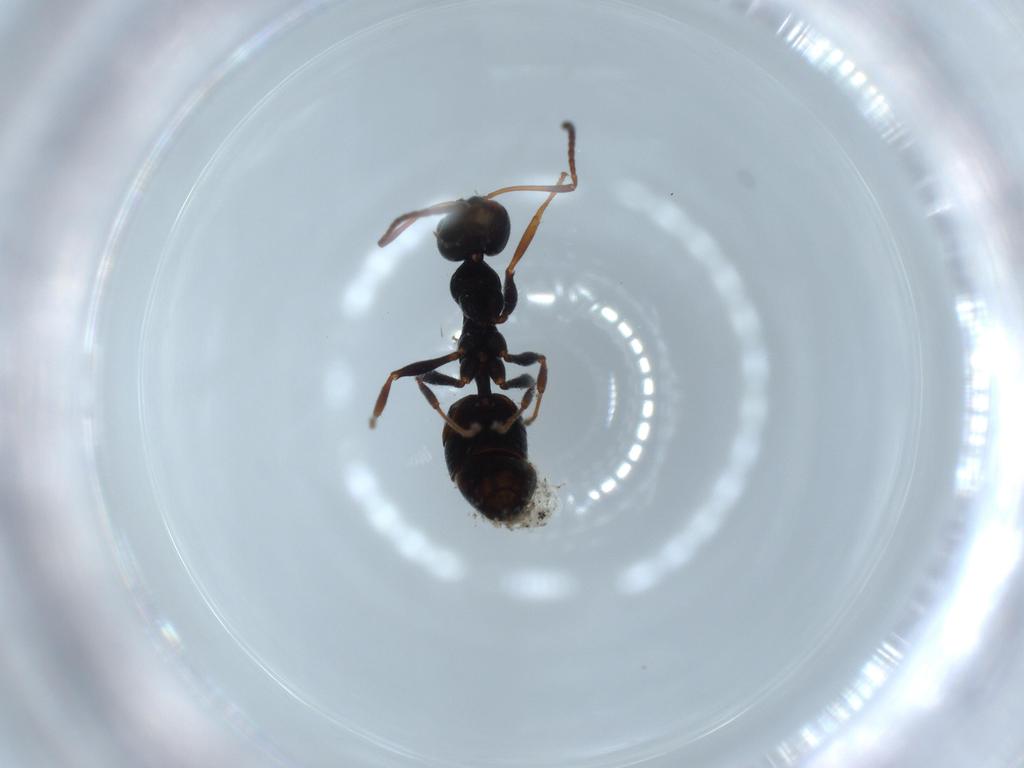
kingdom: Animalia
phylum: Arthropoda
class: Insecta
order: Hymenoptera
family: Formicidae
